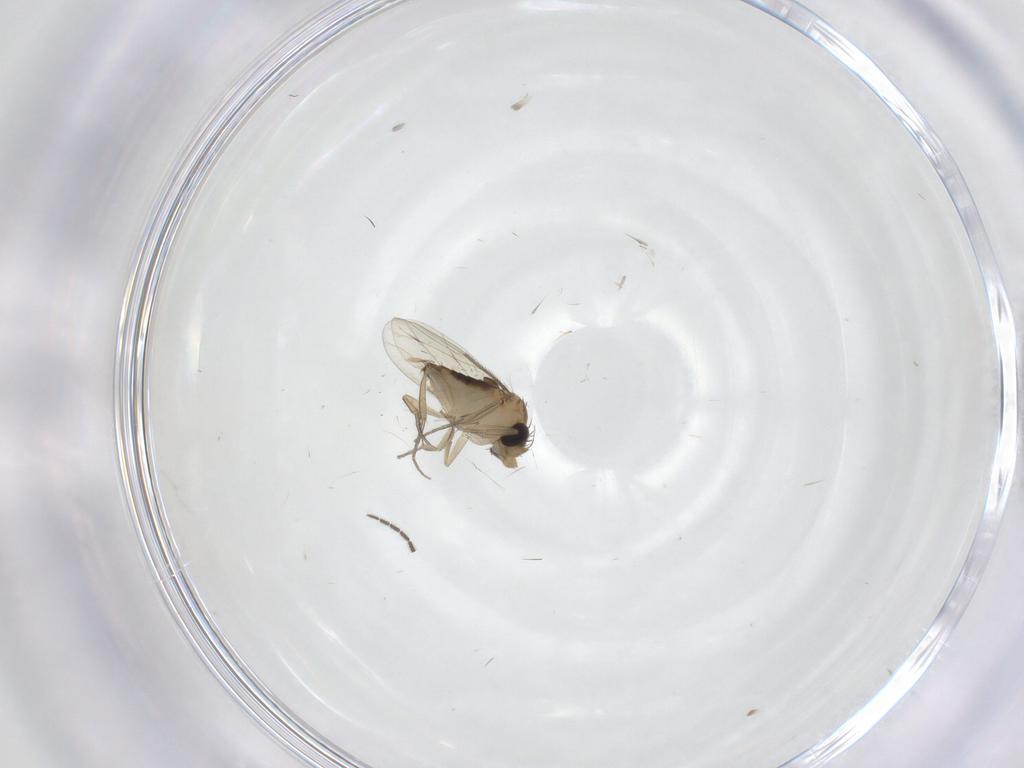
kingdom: Animalia
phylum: Arthropoda
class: Insecta
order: Diptera
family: Phoridae
